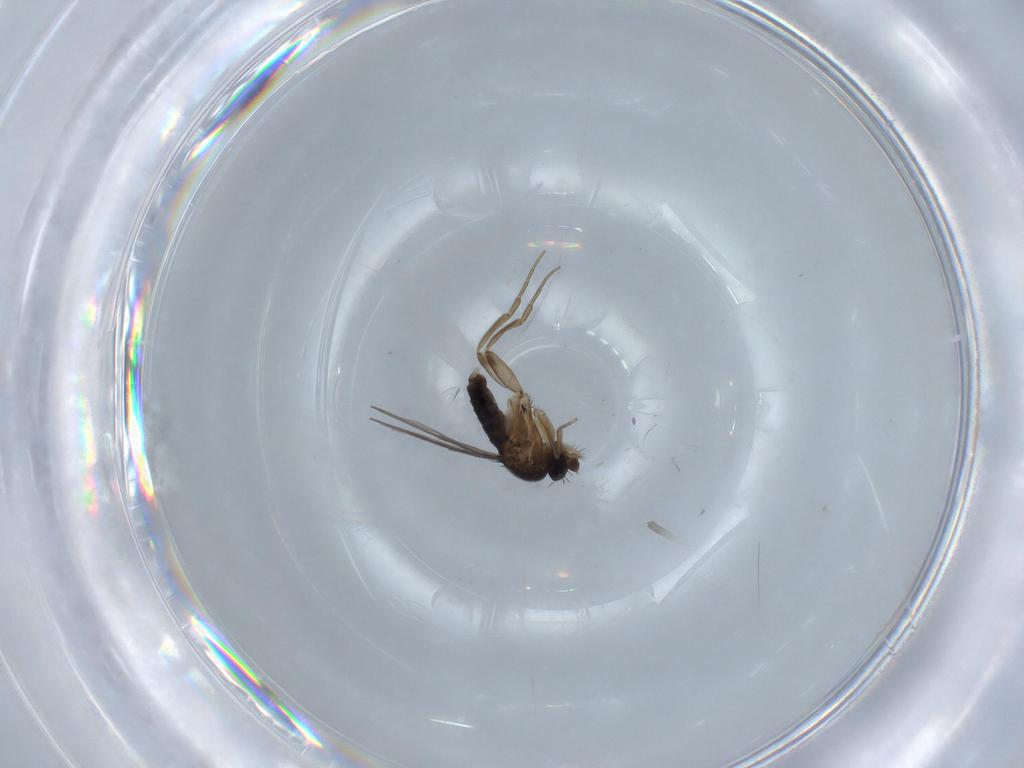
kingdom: Animalia
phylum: Arthropoda
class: Insecta
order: Diptera
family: Phoridae
